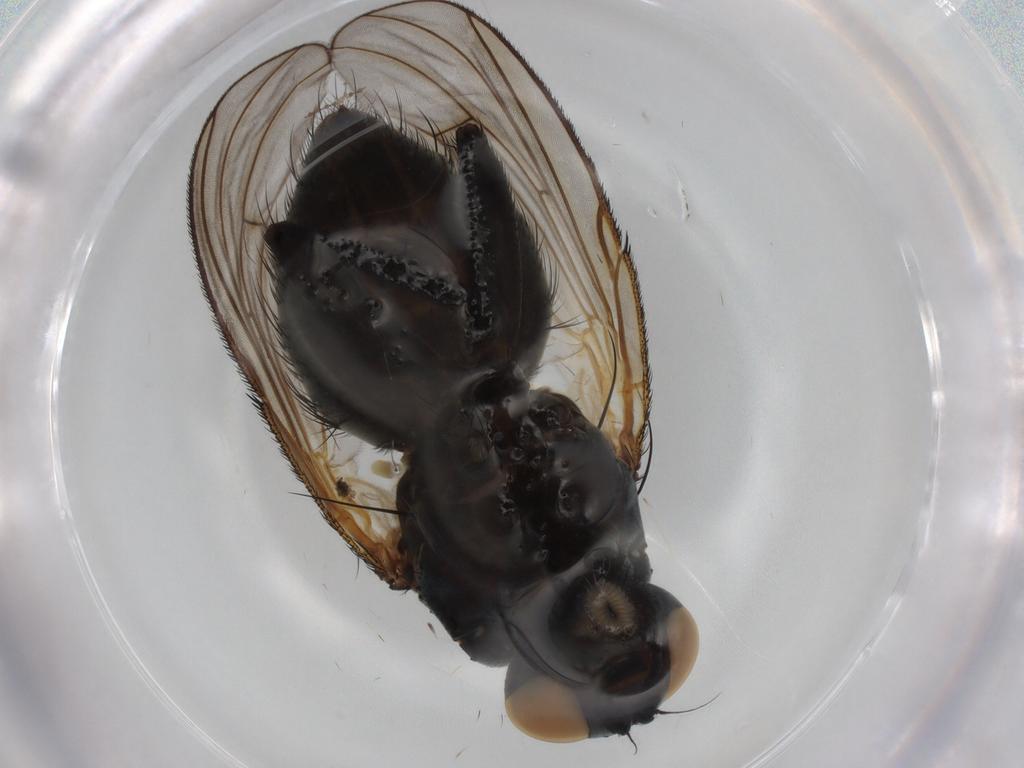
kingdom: Animalia
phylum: Arthropoda
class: Insecta
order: Diptera
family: Muscidae
